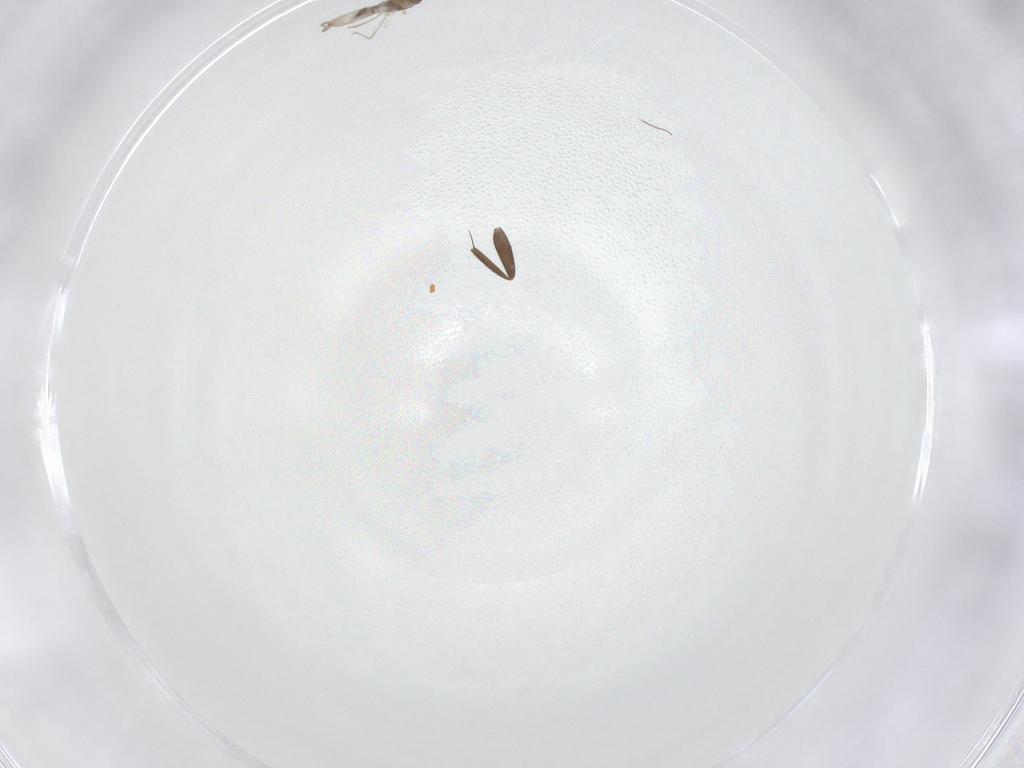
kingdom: Animalia
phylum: Arthropoda
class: Insecta
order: Diptera
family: Cecidomyiidae
